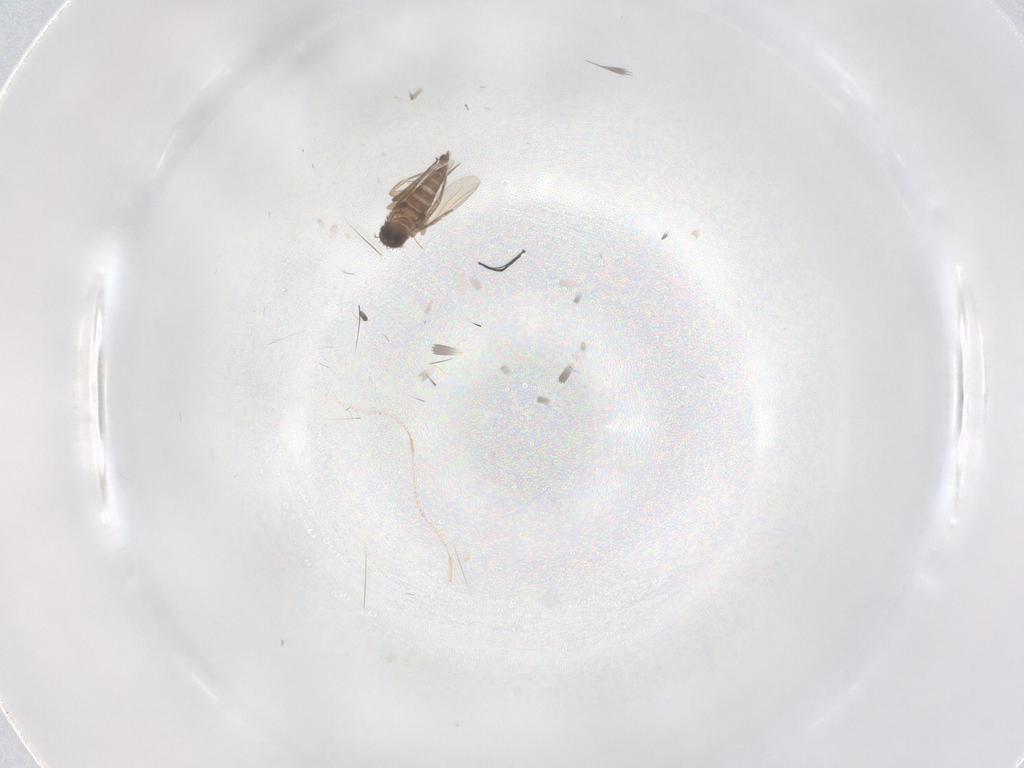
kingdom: Animalia
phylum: Arthropoda
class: Insecta
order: Diptera
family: Phoridae
